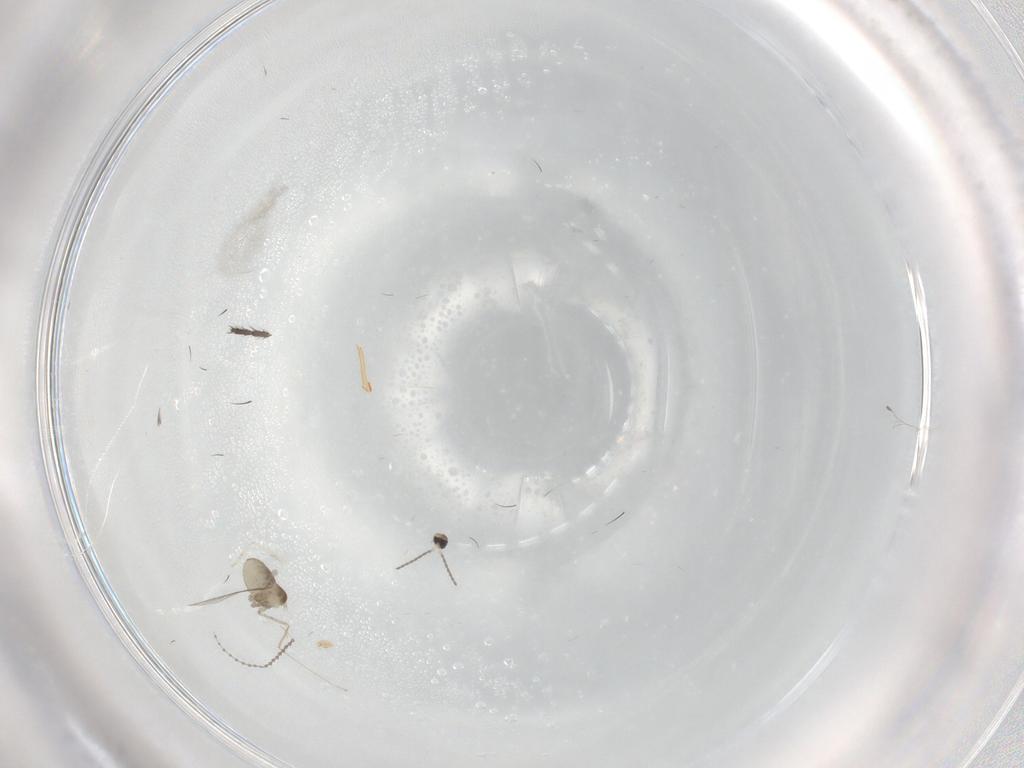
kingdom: Animalia
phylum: Arthropoda
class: Insecta
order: Diptera
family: Cecidomyiidae
